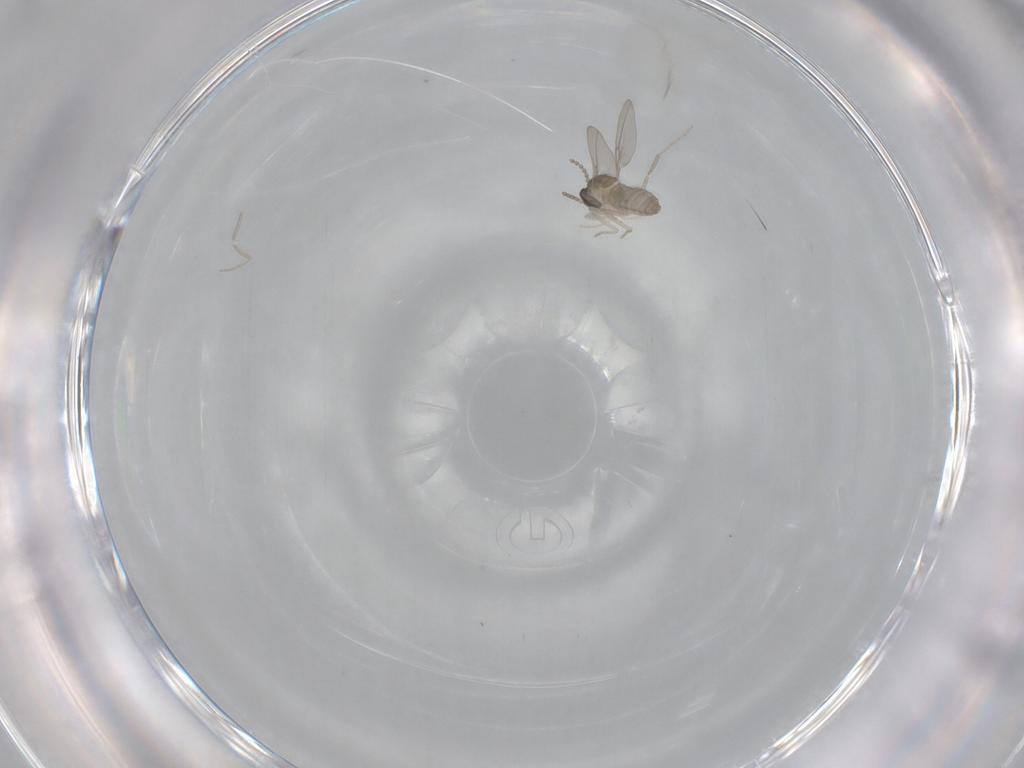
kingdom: Animalia
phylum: Arthropoda
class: Insecta
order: Diptera
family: Cecidomyiidae
